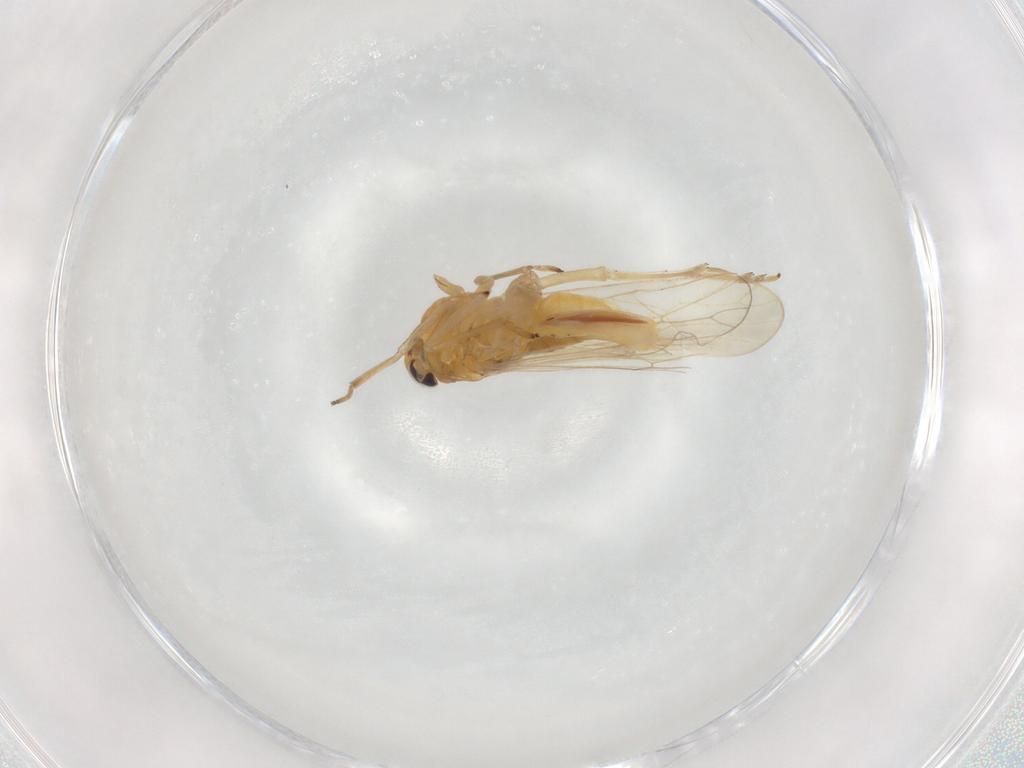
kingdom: Animalia
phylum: Arthropoda
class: Insecta
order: Hemiptera
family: Delphacidae
